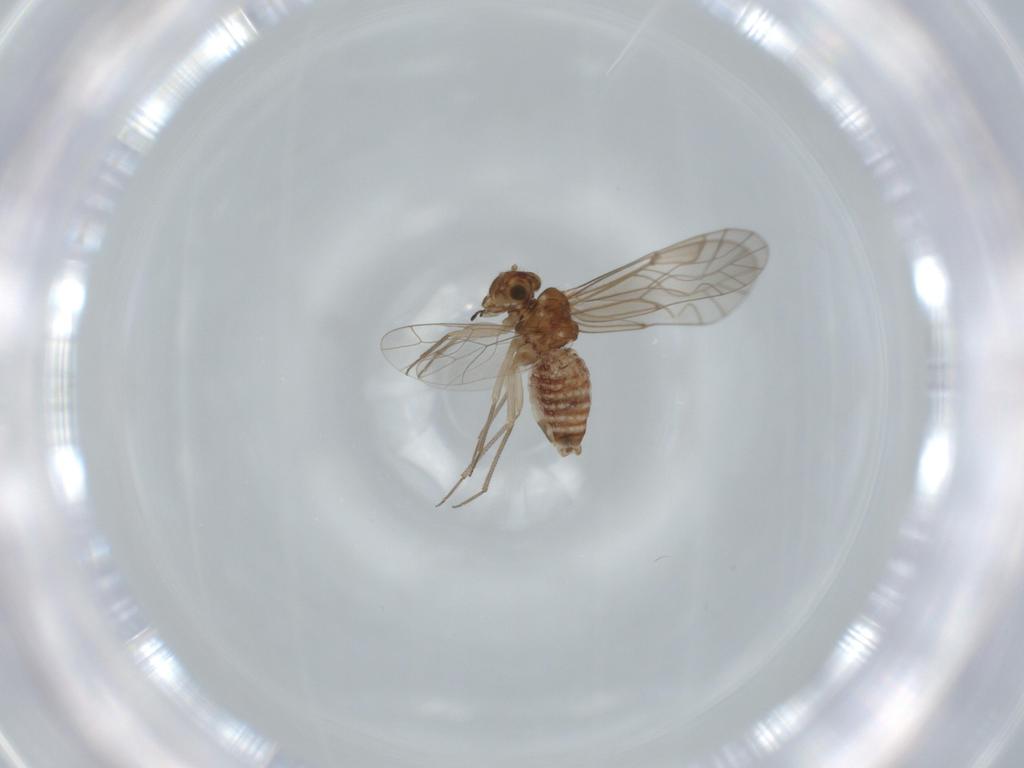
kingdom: Animalia
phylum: Arthropoda
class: Insecta
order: Psocodea
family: Lachesillidae
